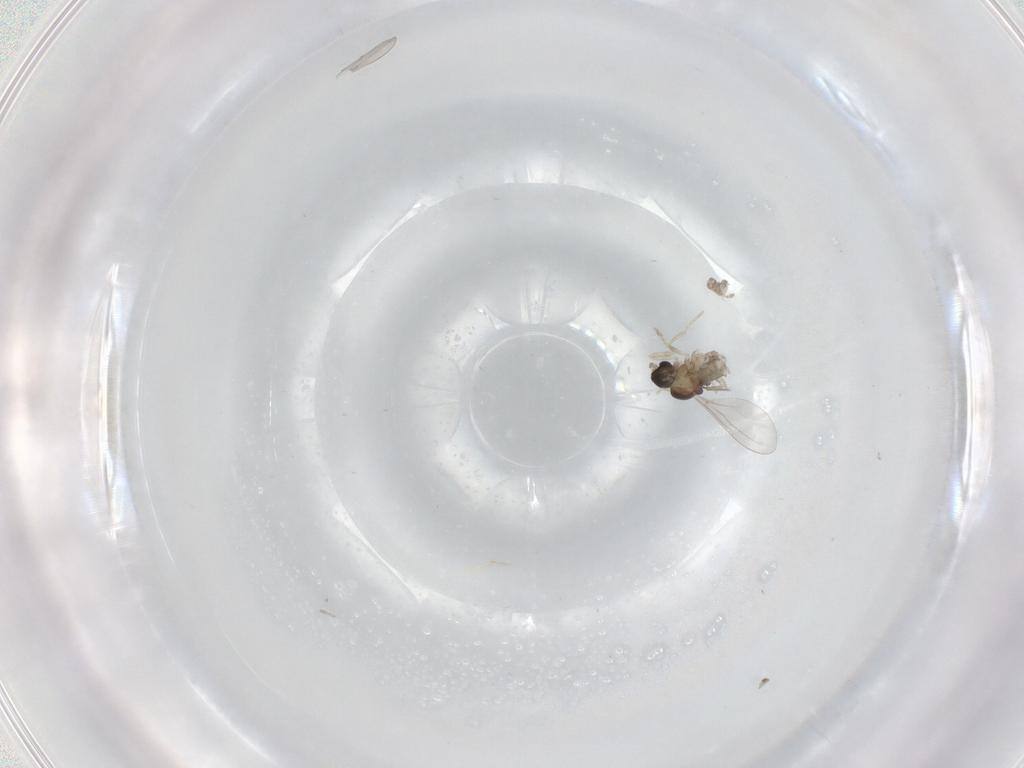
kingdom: Animalia
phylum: Arthropoda
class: Insecta
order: Diptera
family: Cecidomyiidae
